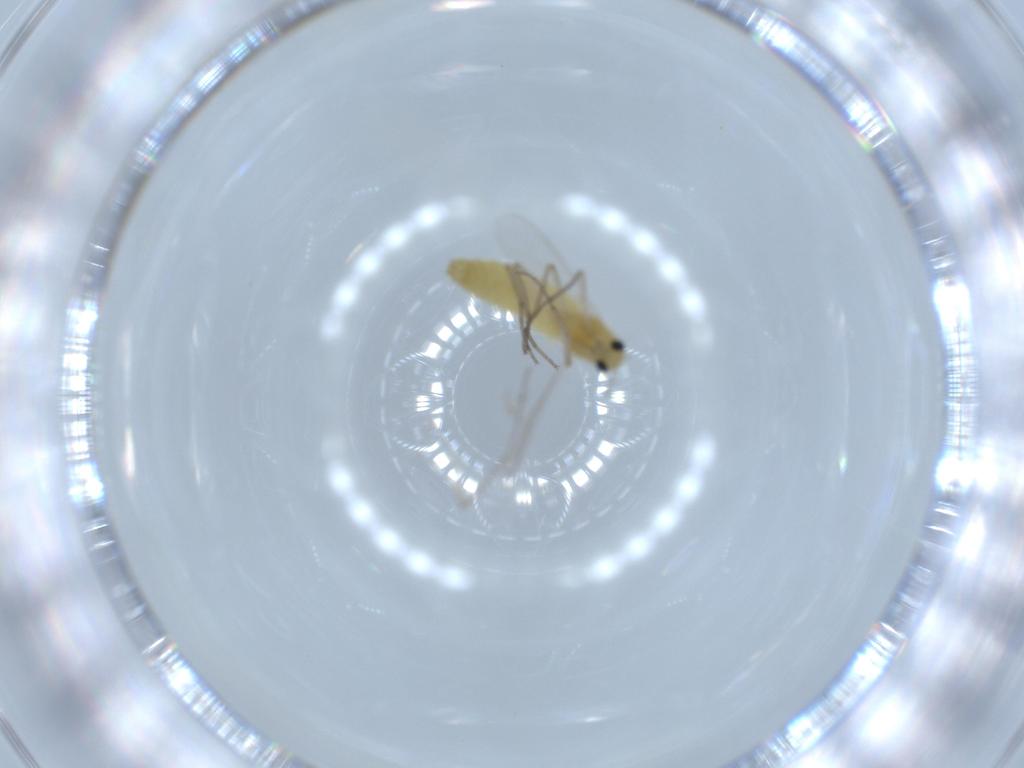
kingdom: Animalia
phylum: Arthropoda
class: Insecta
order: Diptera
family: Chironomidae
